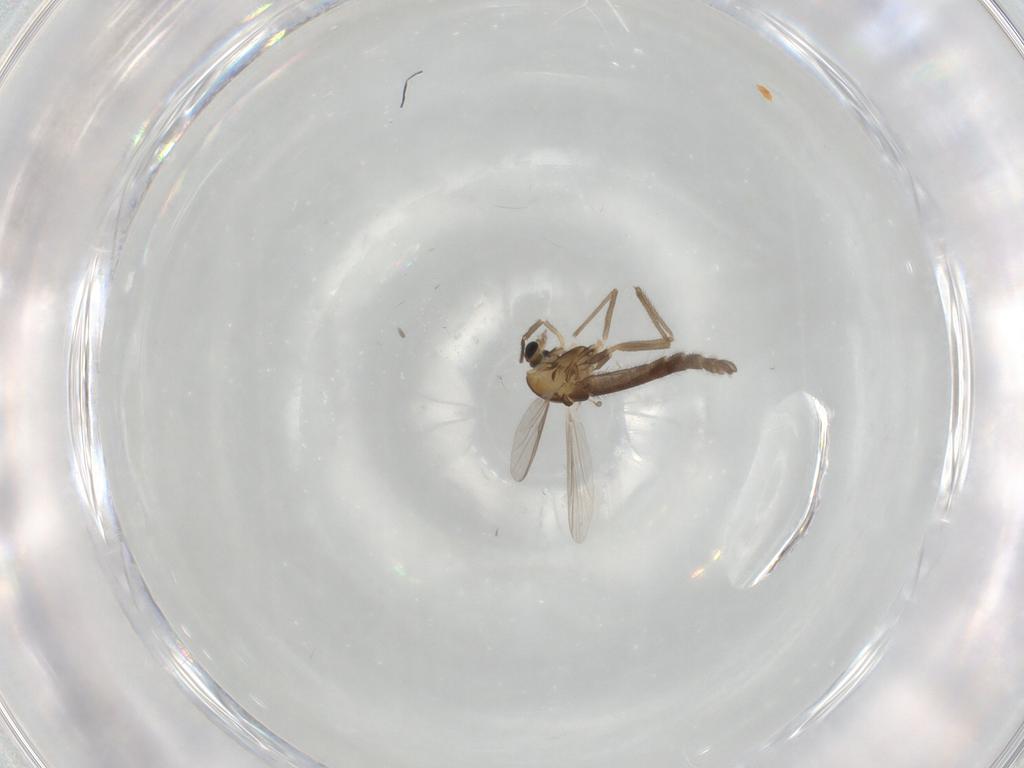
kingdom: Animalia
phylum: Arthropoda
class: Insecta
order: Diptera
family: Chironomidae
